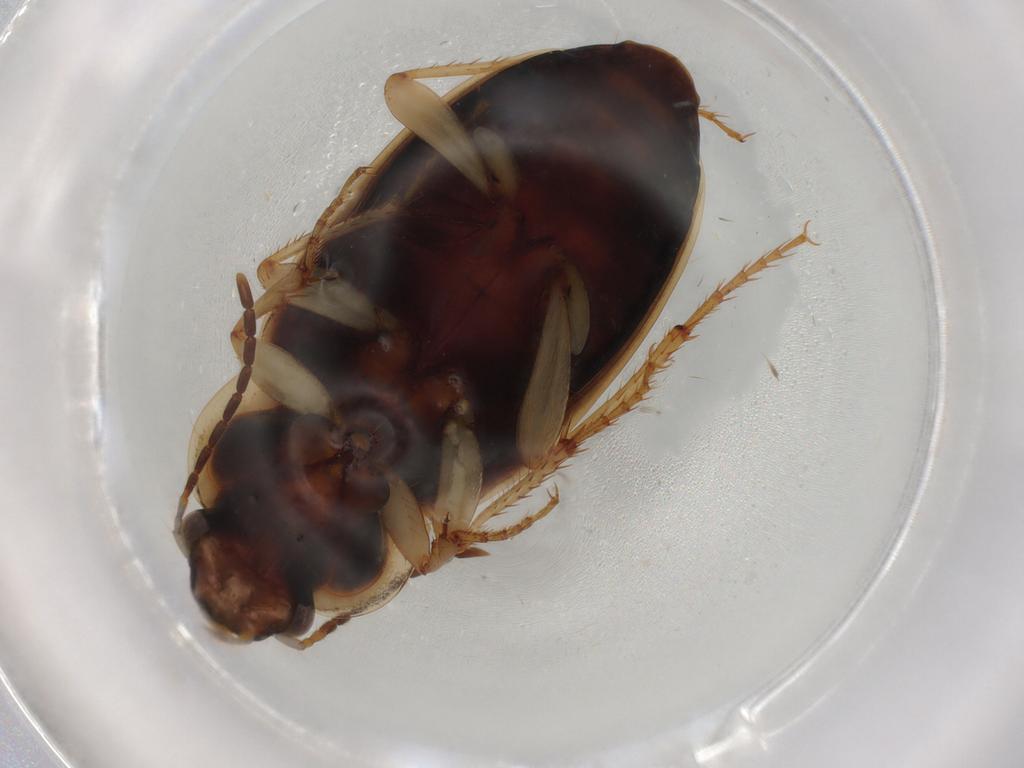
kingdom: Animalia
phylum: Arthropoda
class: Insecta
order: Coleoptera
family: Carabidae
